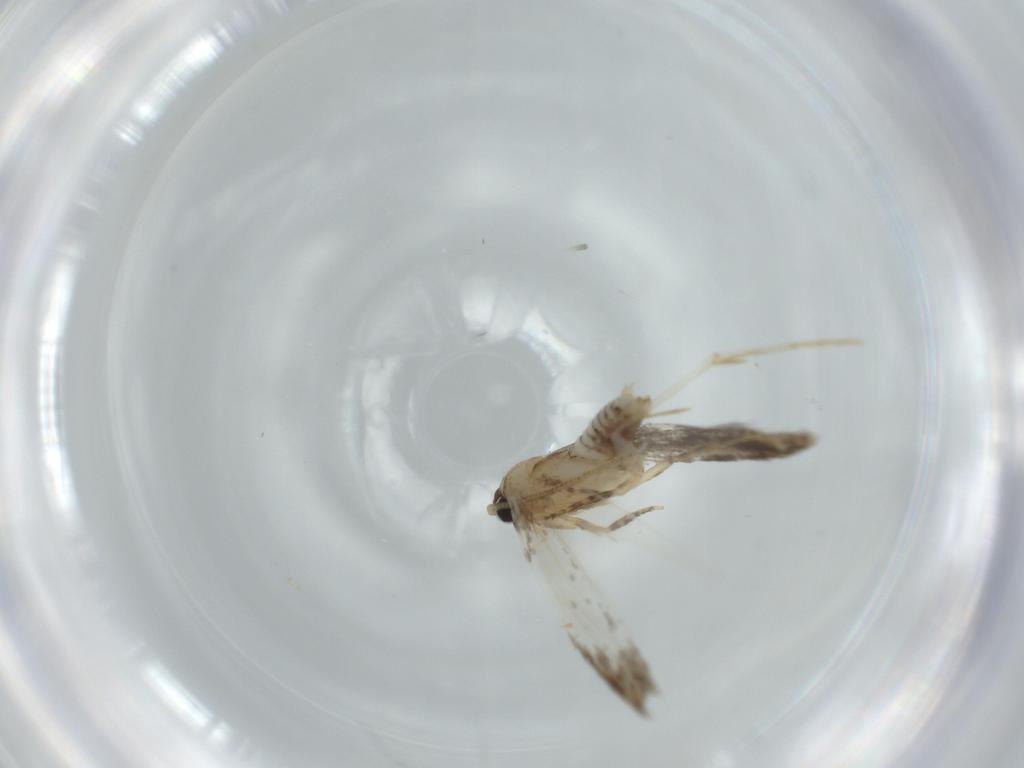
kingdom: Animalia
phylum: Arthropoda
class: Insecta
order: Lepidoptera
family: Tineidae
